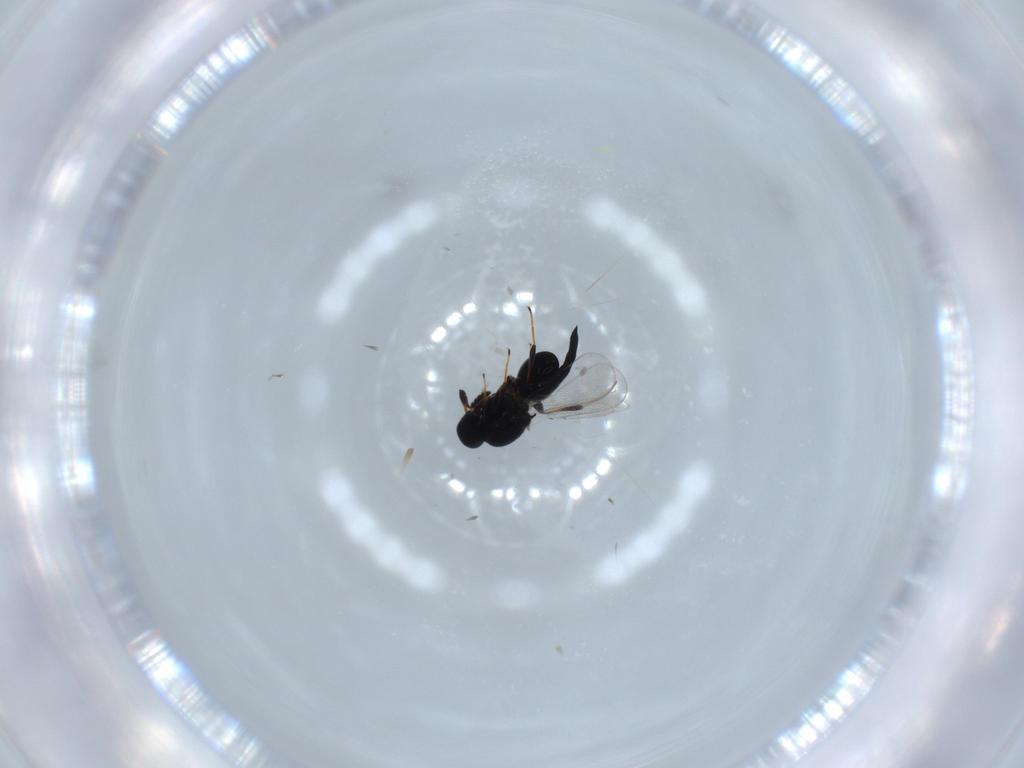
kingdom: Animalia
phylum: Arthropoda
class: Insecta
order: Hymenoptera
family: Platygastridae
